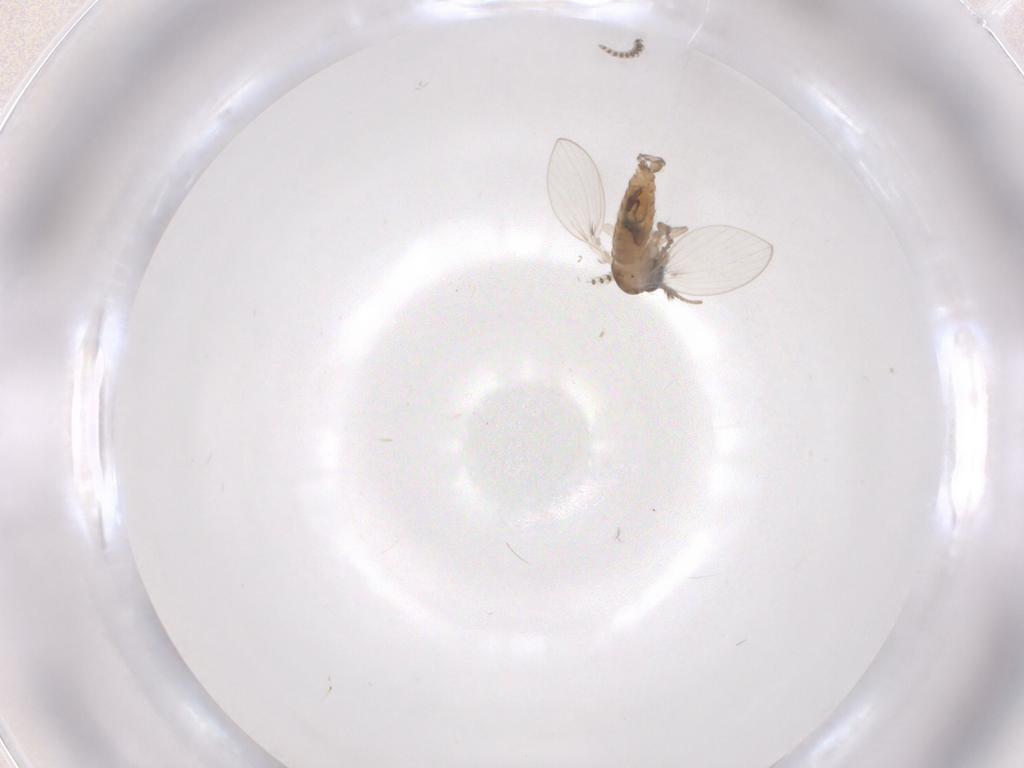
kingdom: Animalia
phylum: Arthropoda
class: Insecta
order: Diptera
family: Psychodidae
